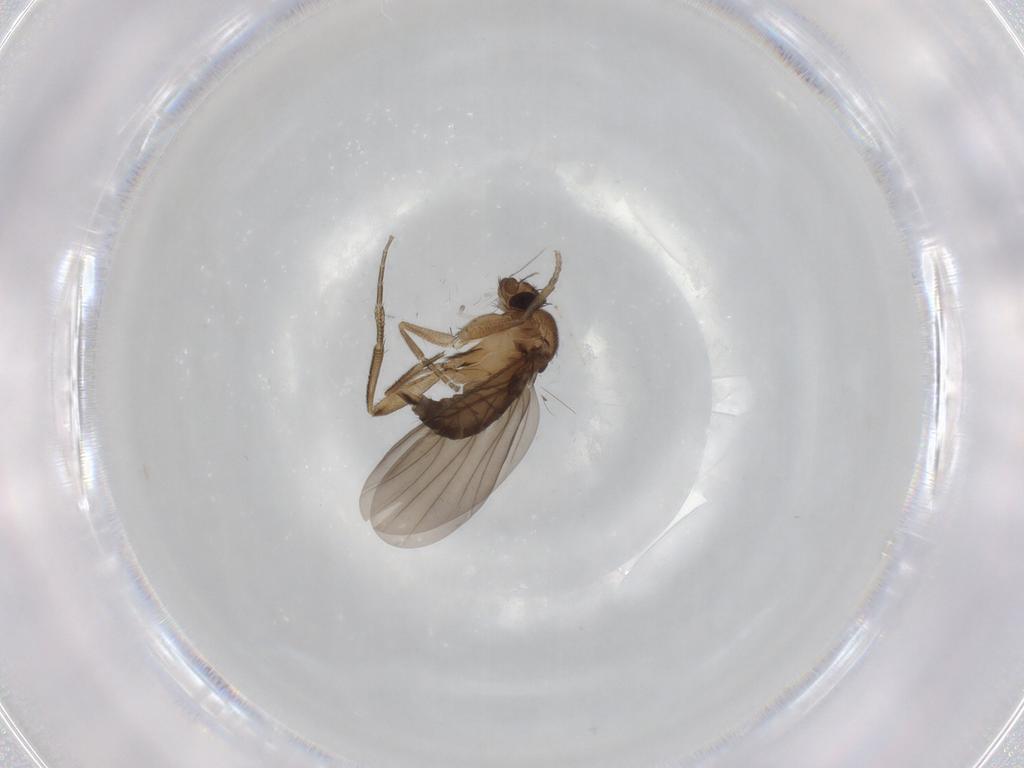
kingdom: Animalia
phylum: Arthropoda
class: Insecta
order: Diptera
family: Phoridae
